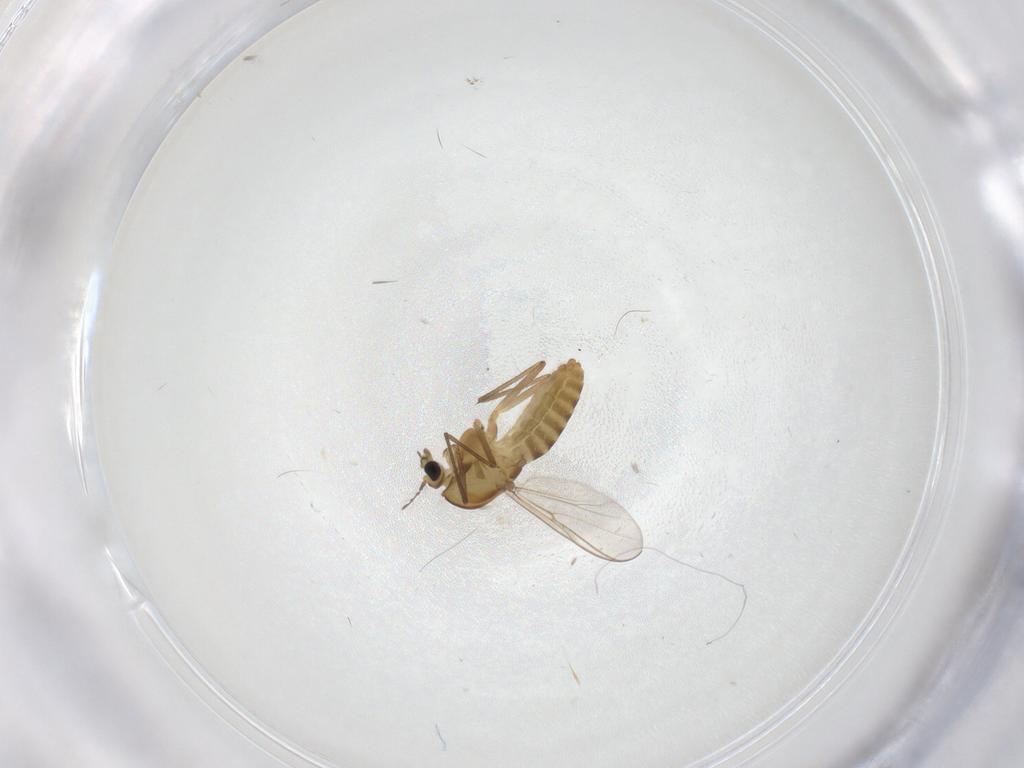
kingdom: Animalia
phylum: Arthropoda
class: Insecta
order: Diptera
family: Chironomidae
